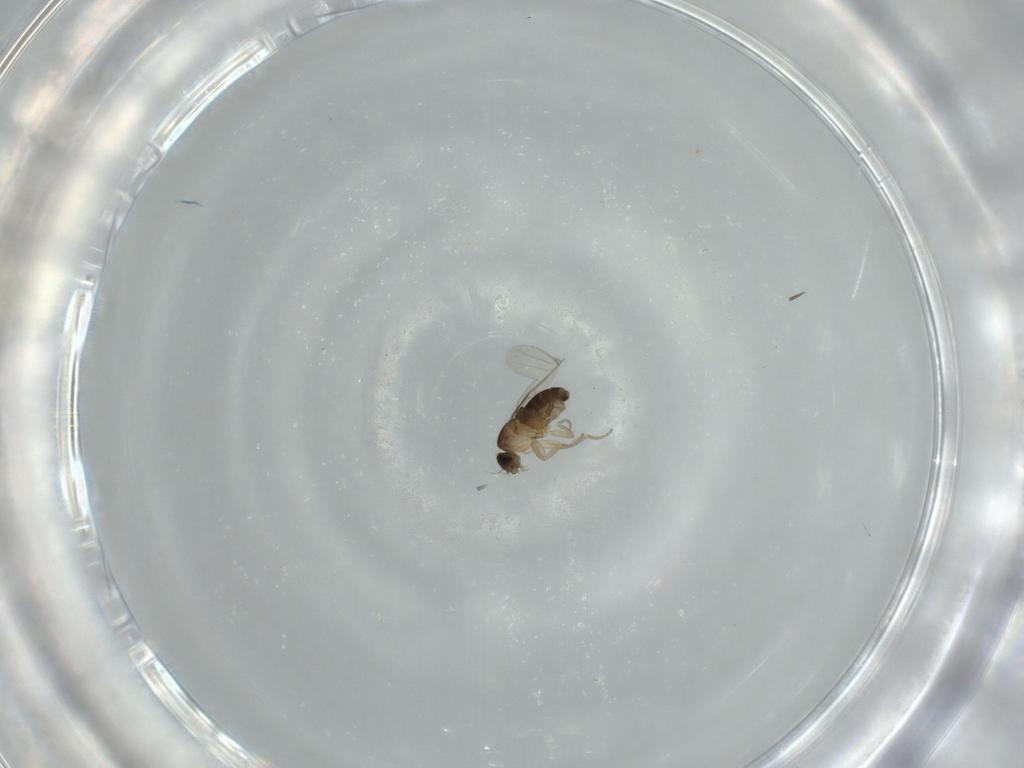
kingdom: Animalia
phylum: Arthropoda
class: Insecta
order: Diptera
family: Phoridae
